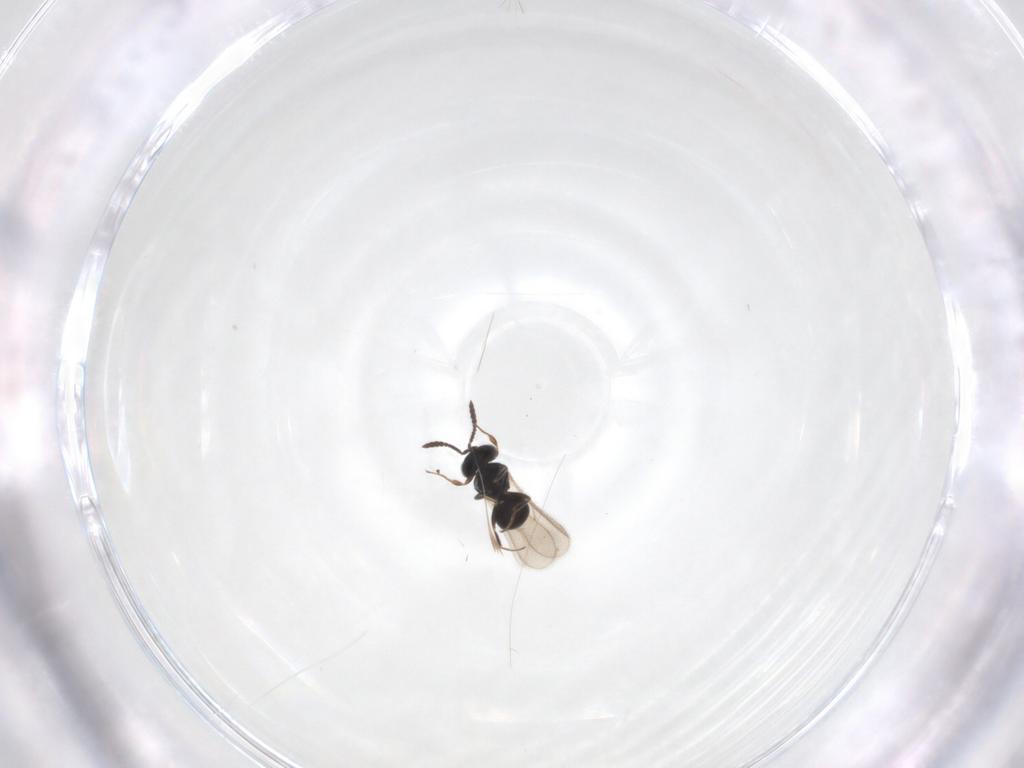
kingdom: Animalia
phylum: Arthropoda
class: Insecta
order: Hymenoptera
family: Scelionidae
